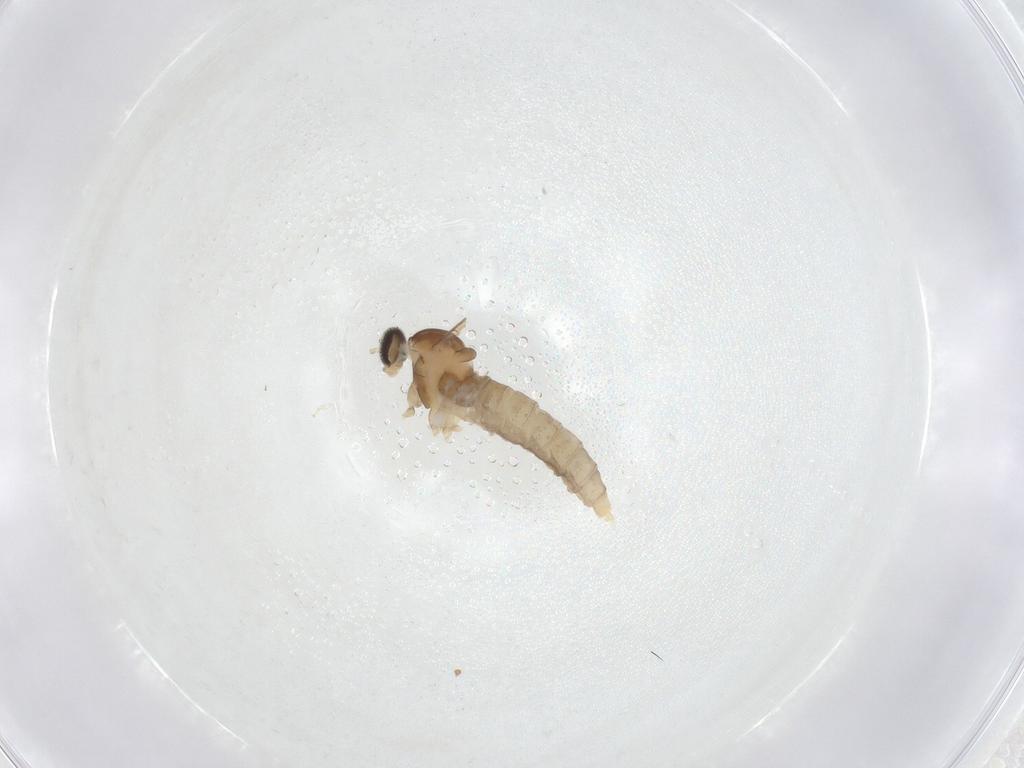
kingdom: Animalia
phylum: Arthropoda
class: Insecta
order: Diptera
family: Cecidomyiidae
